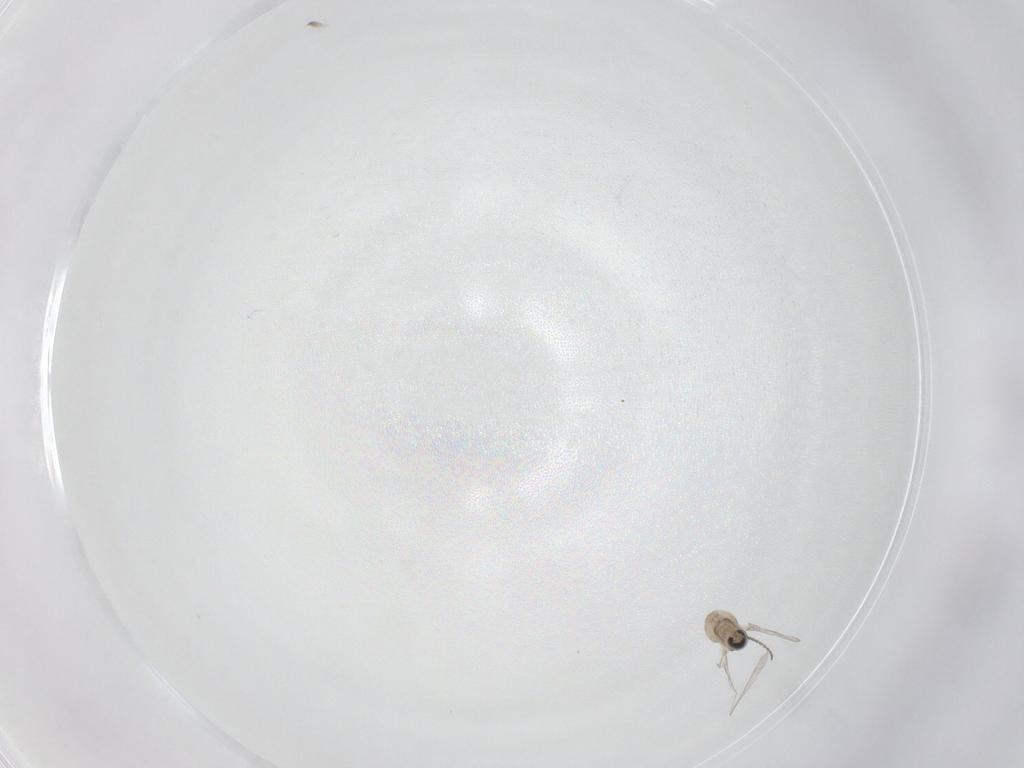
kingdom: Animalia
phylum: Arthropoda
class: Insecta
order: Diptera
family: Cecidomyiidae
